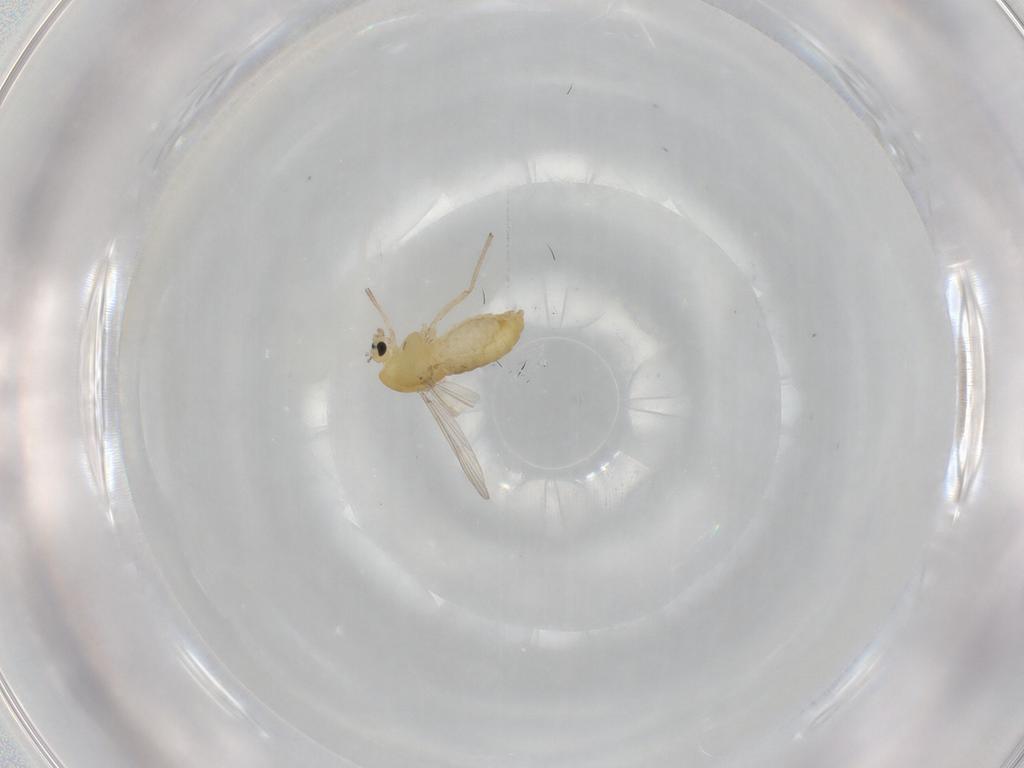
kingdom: Animalia
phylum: Arthropoda
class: Insecta
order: Diptera
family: Chironomidae
